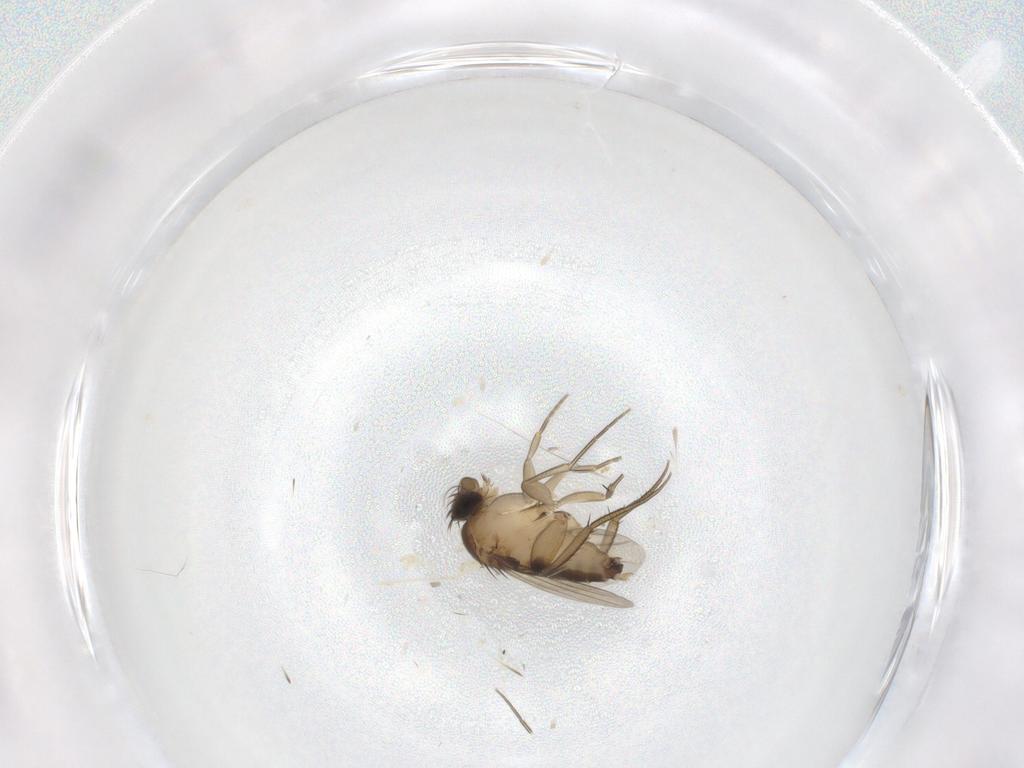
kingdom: Animalia
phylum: Arthropoda
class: Insecta
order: Diptera
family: Phoridae
